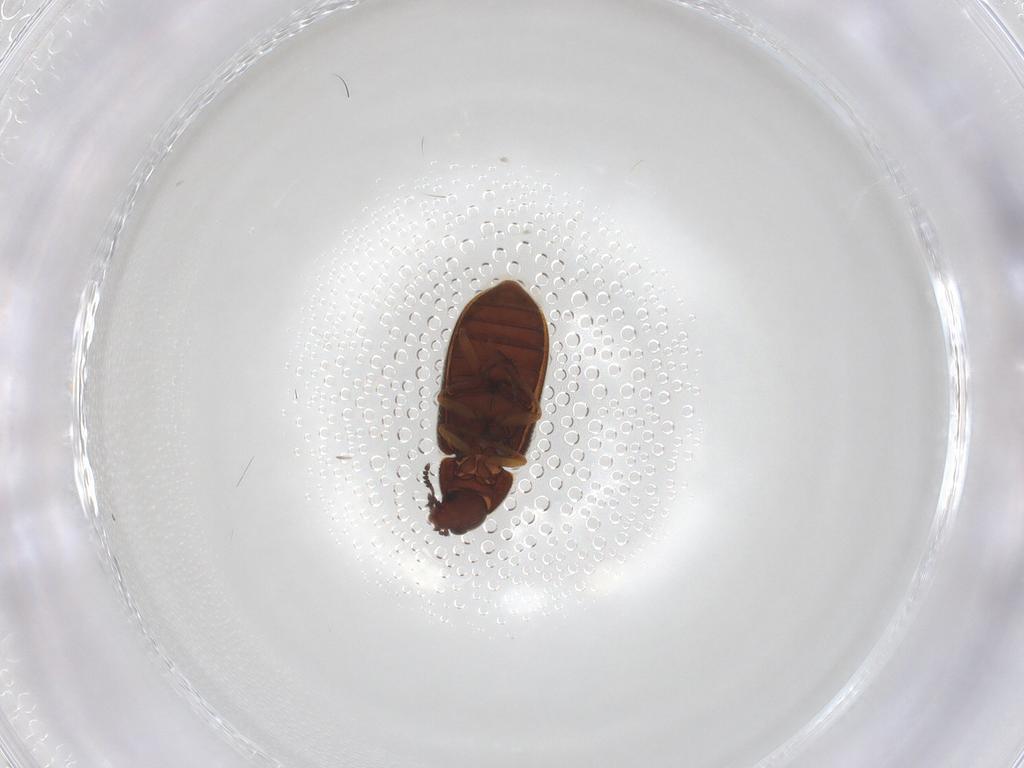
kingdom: Animalia
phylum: Arthropoda
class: Insecta
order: Coleoptera
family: Rhadalidae
